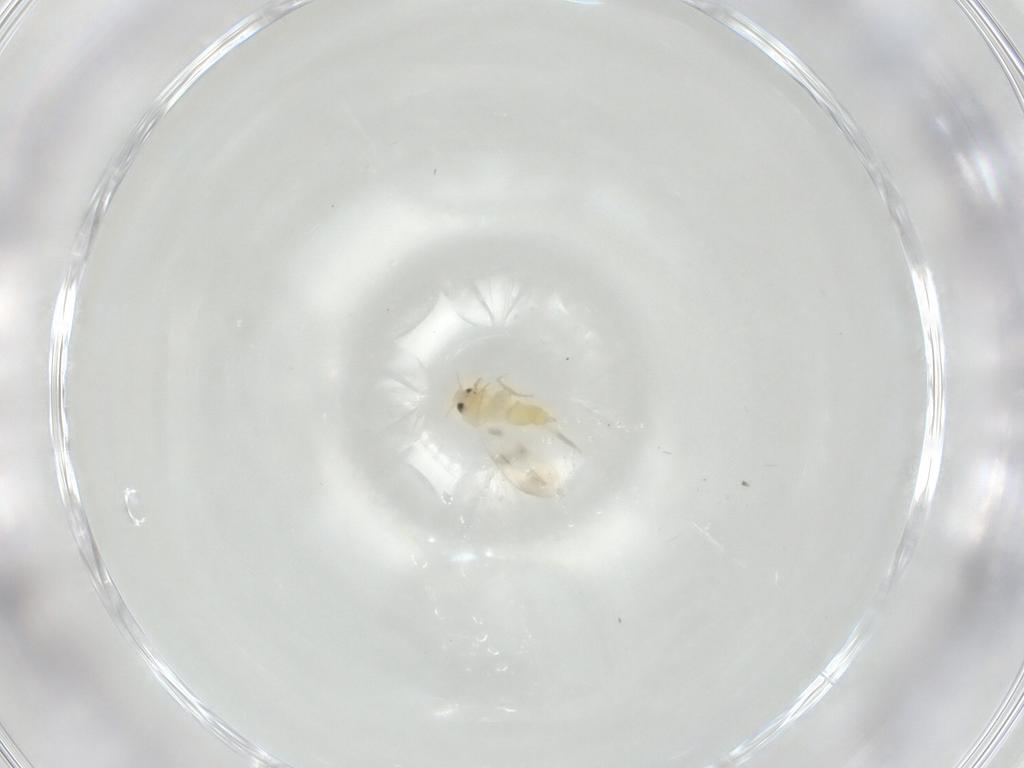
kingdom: Animalia
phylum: Arthropoda
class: Insecta
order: Hemiptera
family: Aleyrodidae
